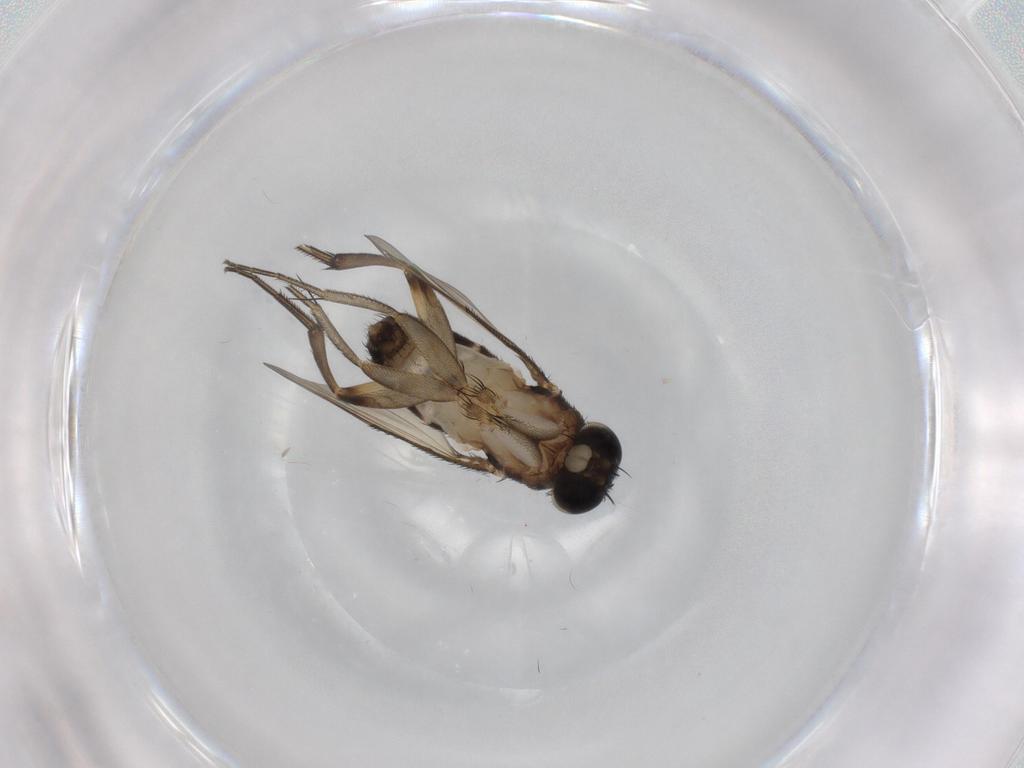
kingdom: Animalia
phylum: Arthropoda
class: Insecta
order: Diptera
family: Phoridae
